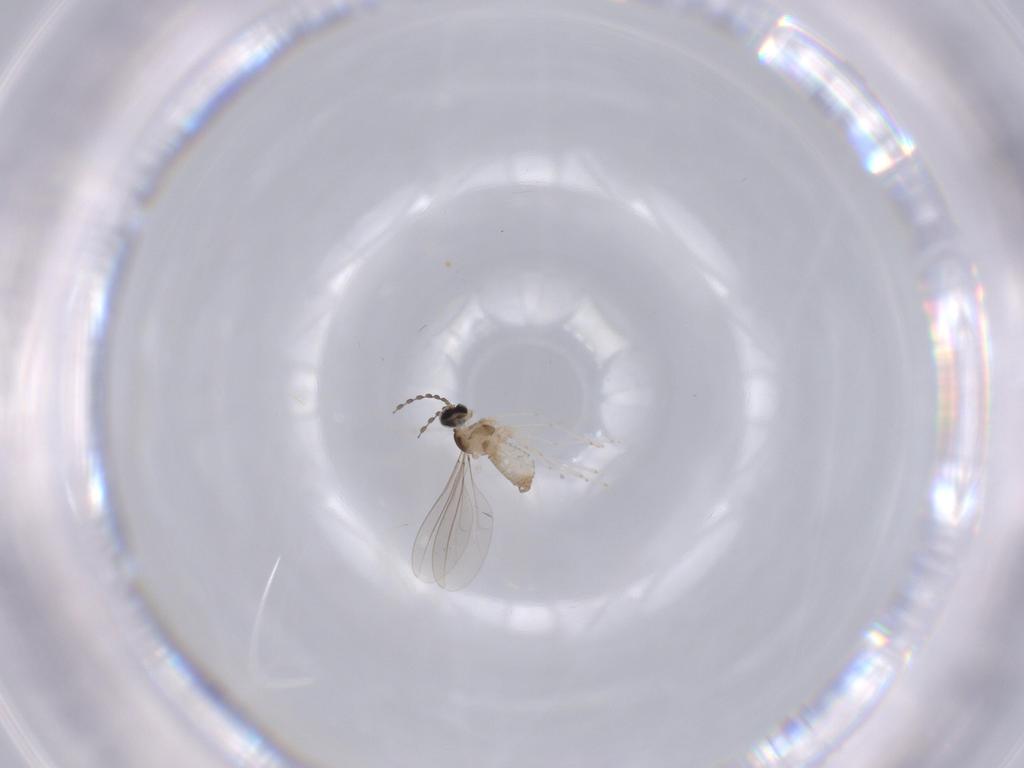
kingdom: Animalia
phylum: Arthropoda
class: Insecta
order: Diptera
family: Cecidomyiidae
